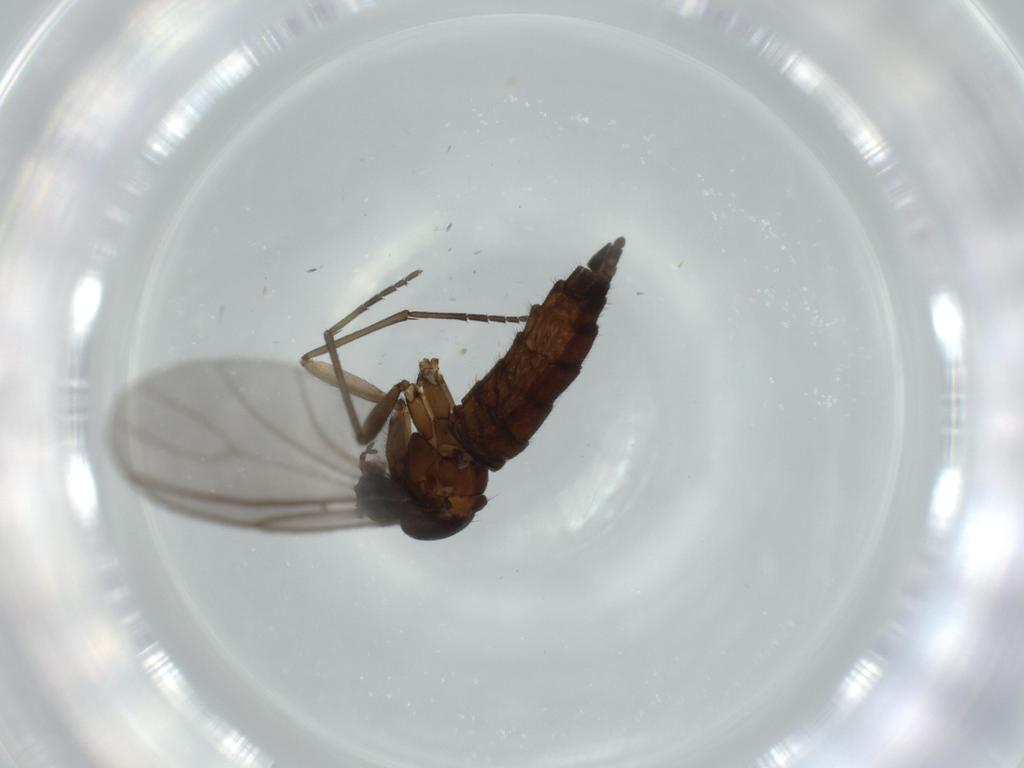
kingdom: Animalia
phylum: Arthropoda
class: Insecta
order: Diptera
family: Sciaridae
